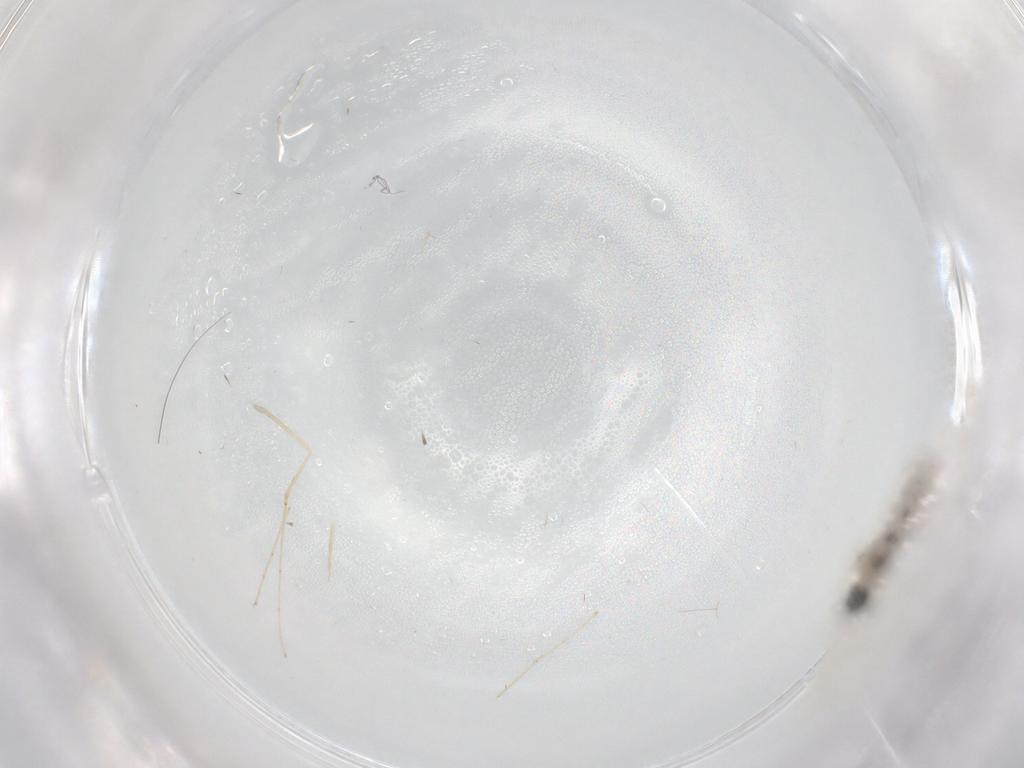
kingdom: Animalia
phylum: Arthropoda
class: Insecta
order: Diptera
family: Cecidomyiidae
